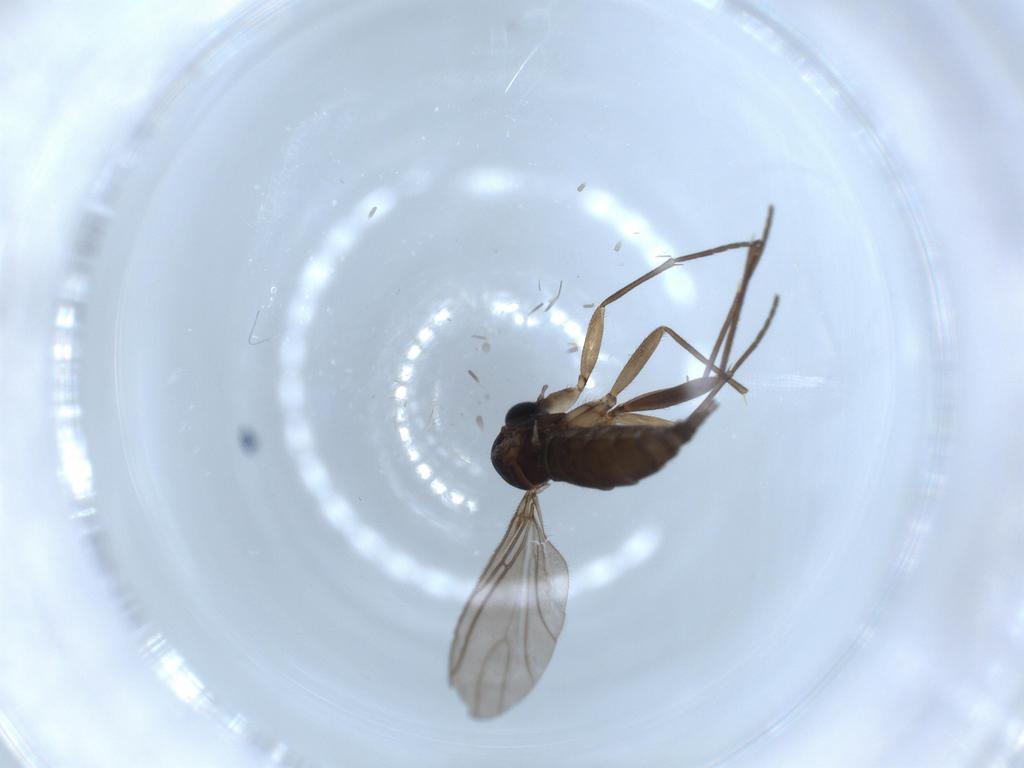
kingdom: Animalia
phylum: Arthropoda
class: Insecta
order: Diptera
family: Sciaridae
